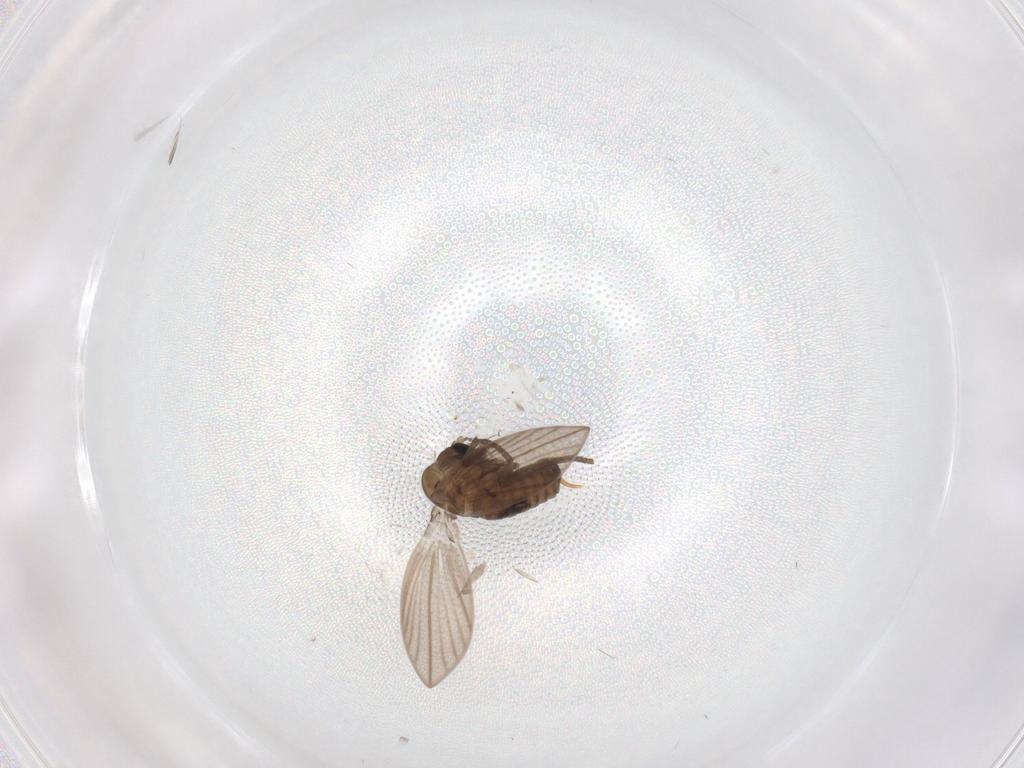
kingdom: Animalia
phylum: Arthropoda
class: Insecta
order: Diptera
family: Psychodidae
